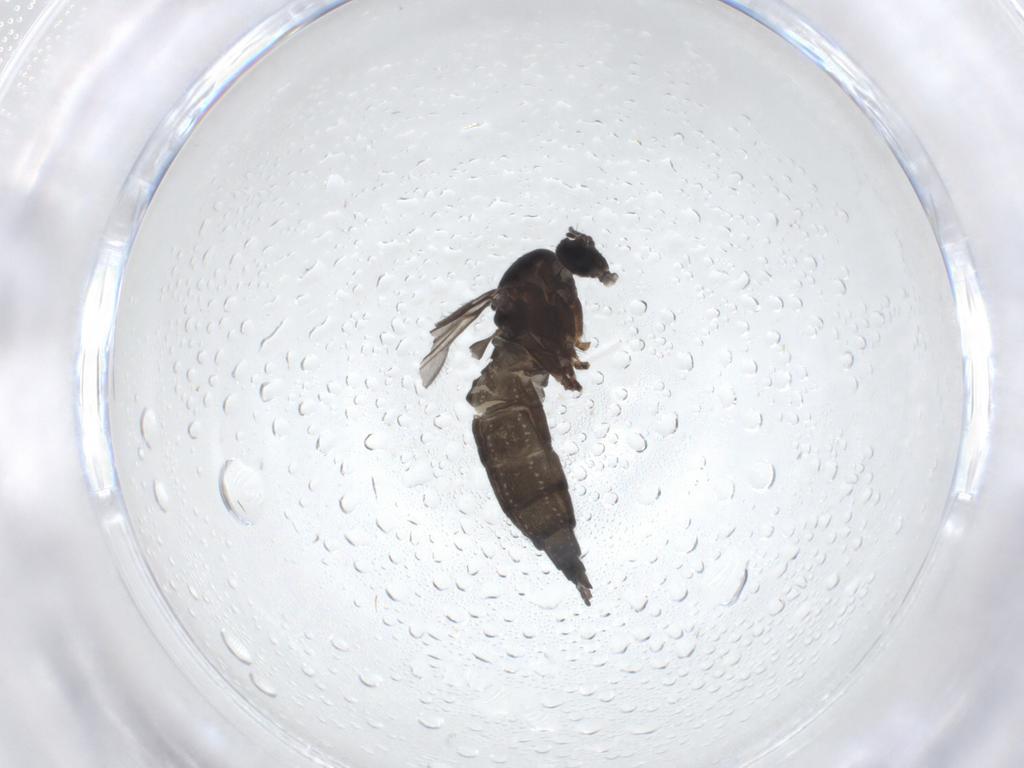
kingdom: Animalia
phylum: Arthropoda
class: Insecta
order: Diptera
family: Sciaridae
